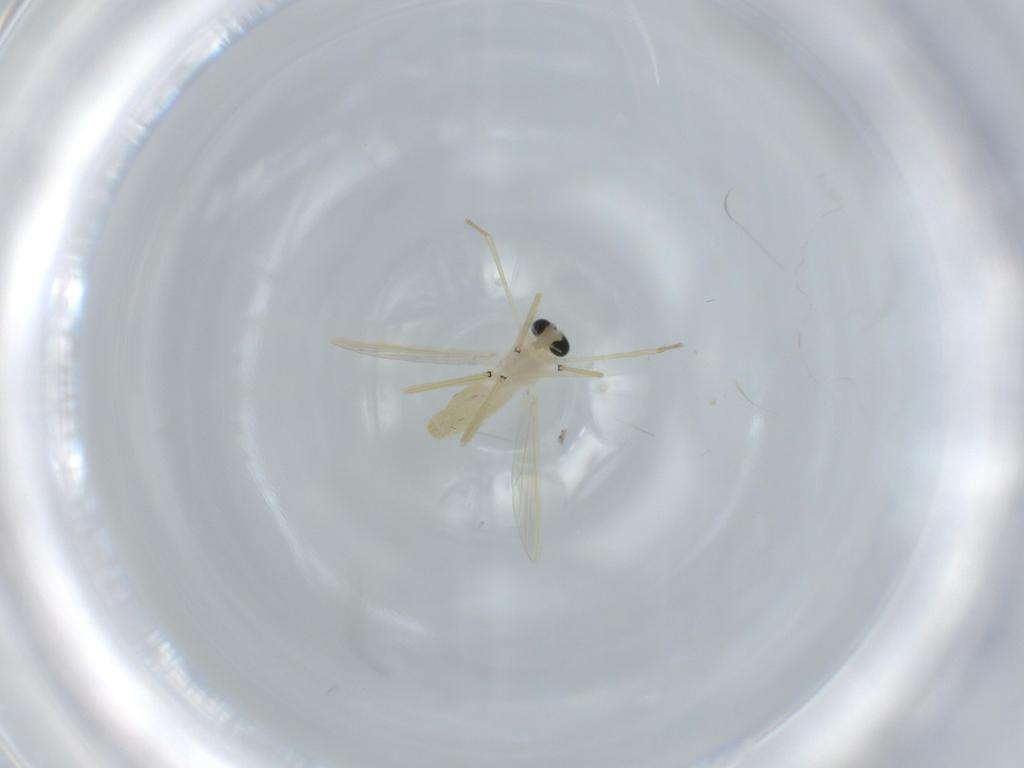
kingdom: Animalia
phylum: Arthropoda
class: Insecta
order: Diptera
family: Chironomidae
